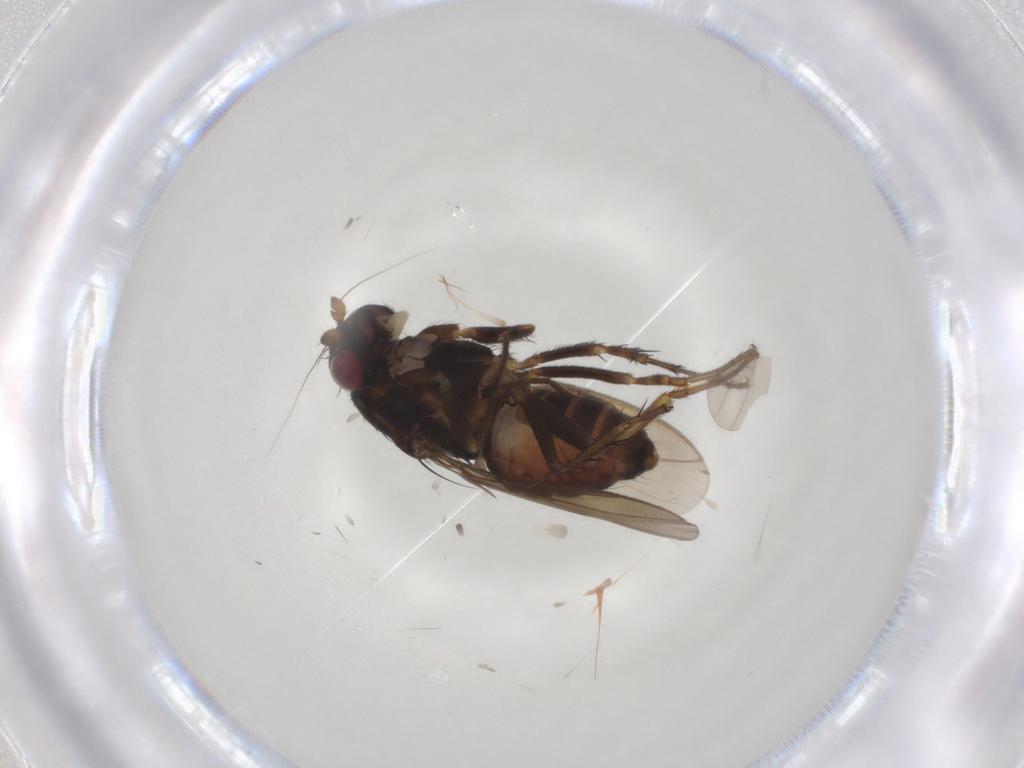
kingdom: Animalia
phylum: Arthropoda
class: Insecta
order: Diptera
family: Sphaeroceridae
